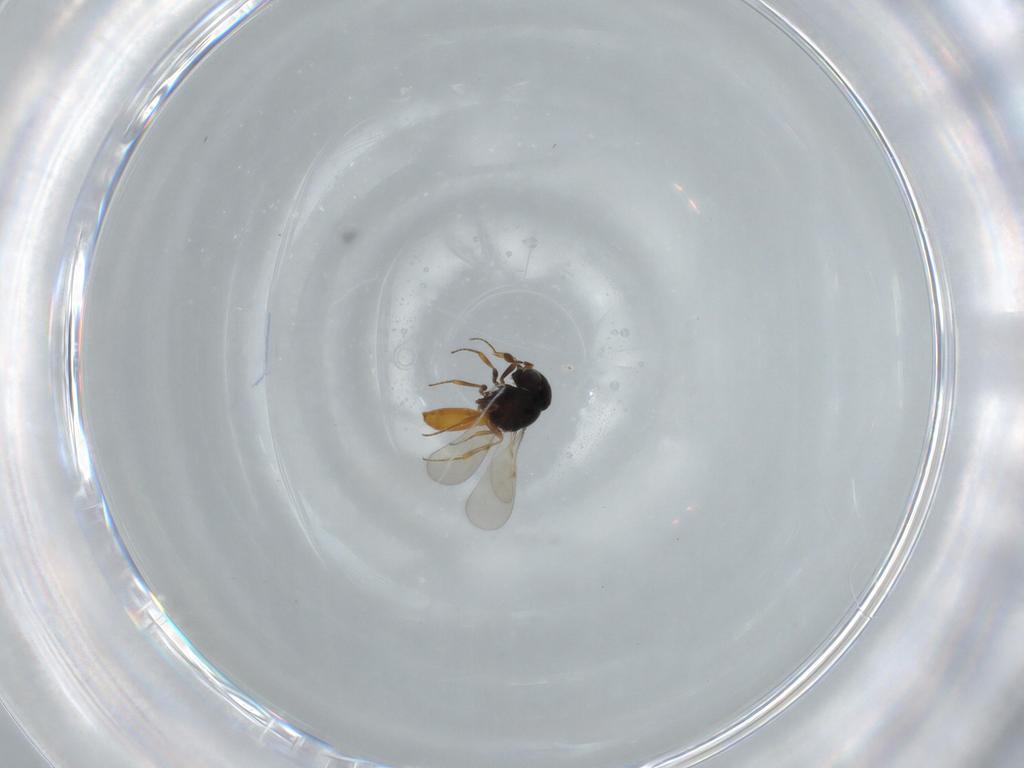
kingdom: Animalia
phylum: Arthropoda
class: Insecta
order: Hymenoptera
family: Scelionidae
